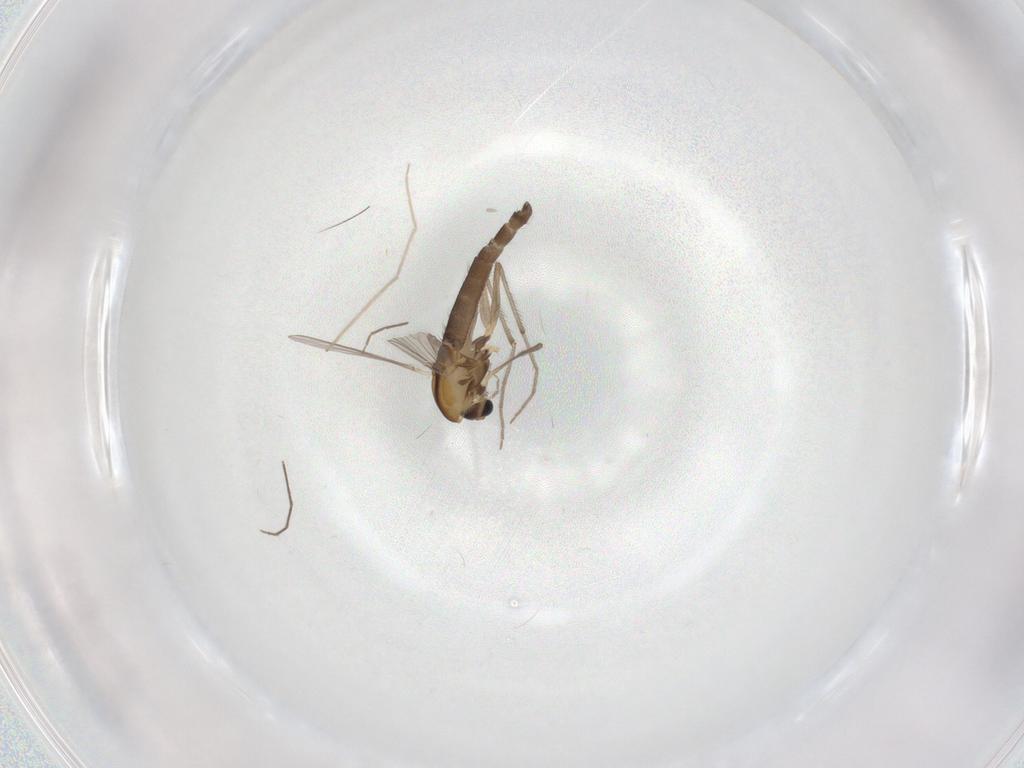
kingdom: Animalia
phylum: Arthropoda
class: Insecta
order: Diptera
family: Chironomidae
